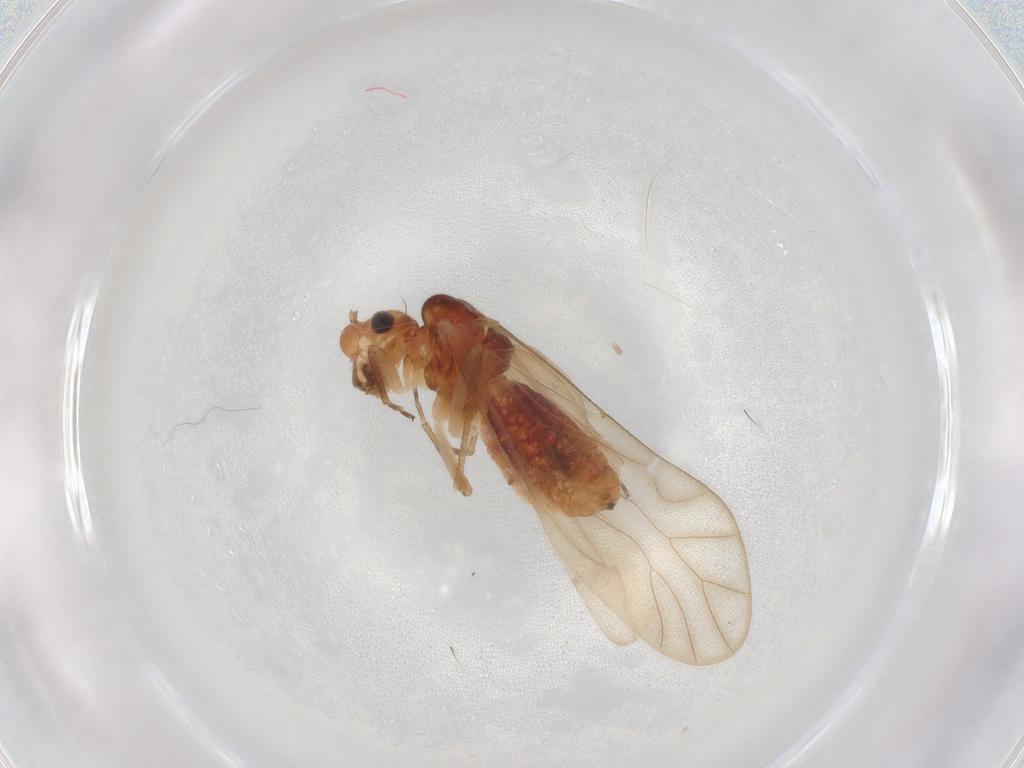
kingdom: Animalia
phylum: Arthropoda
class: Insecta
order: Psocodea
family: Caeciliusidae
